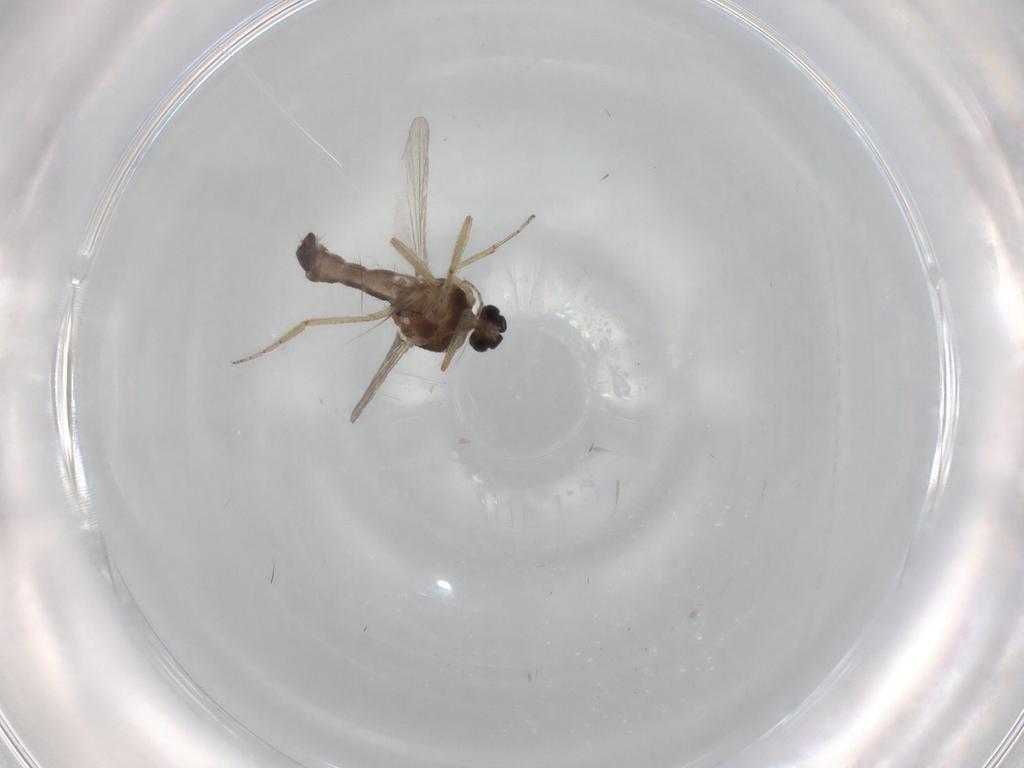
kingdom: Animalia
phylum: Arthropoda
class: Insecta
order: Diptera
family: Ceratopogonidae
